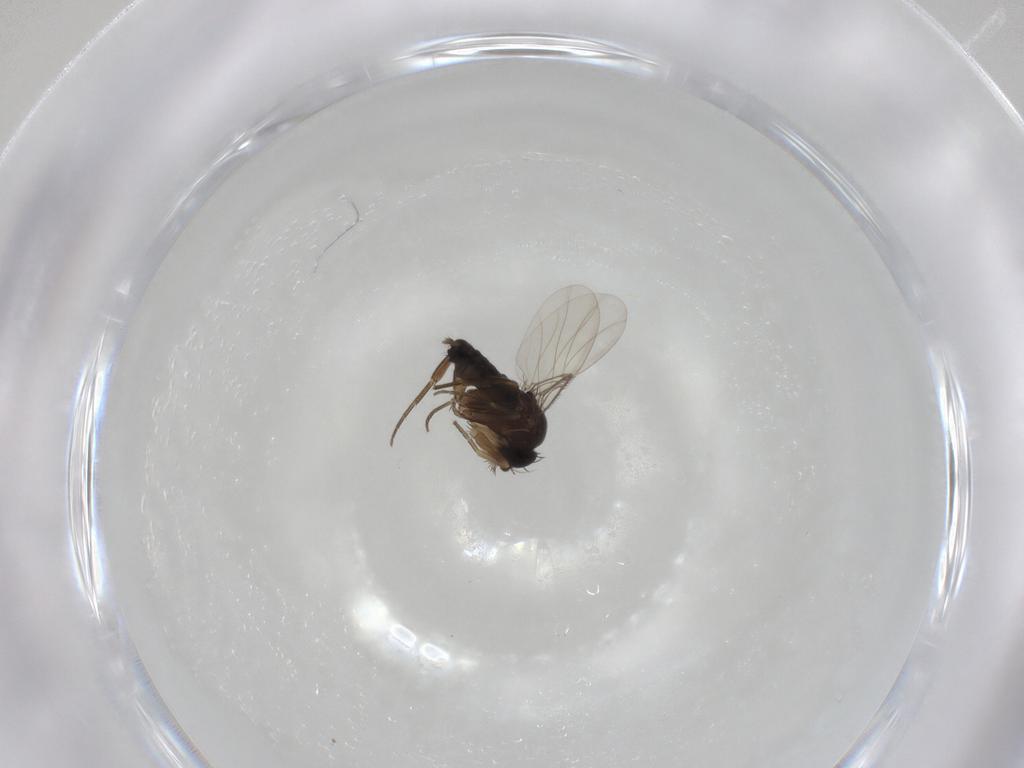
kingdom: Animalia
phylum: Arthropoda
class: Insecta
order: Diptera
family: Phoridae
